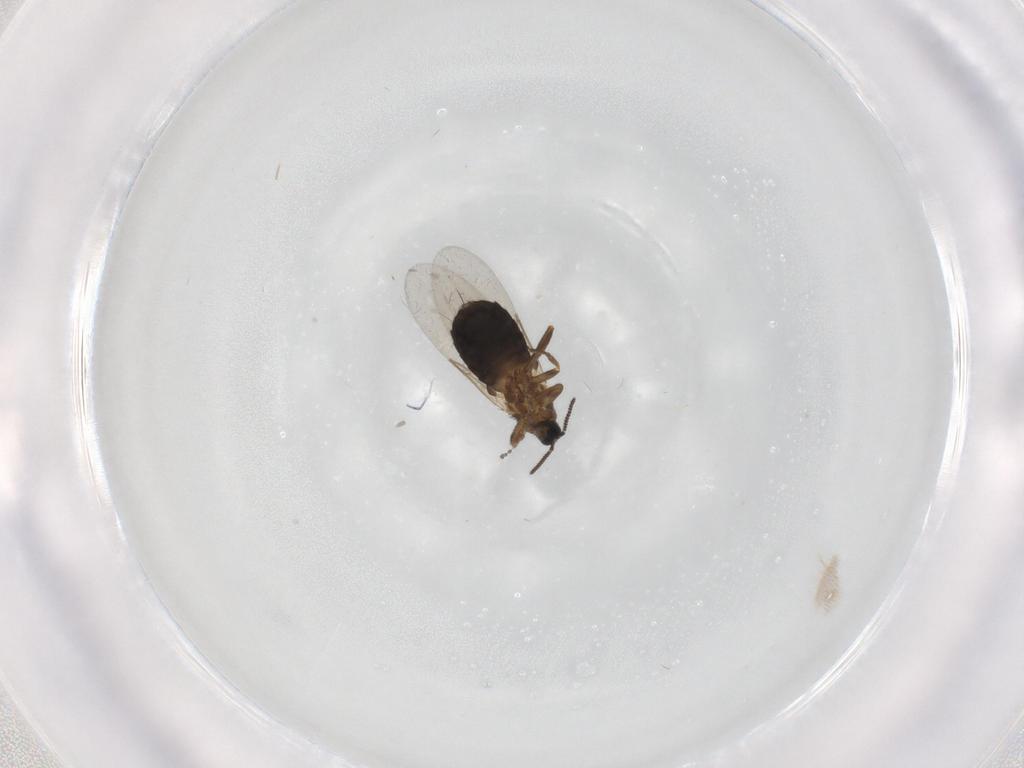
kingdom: Animalia
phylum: Arthropoda
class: Insecta
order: Diptera
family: Scatopsidae
